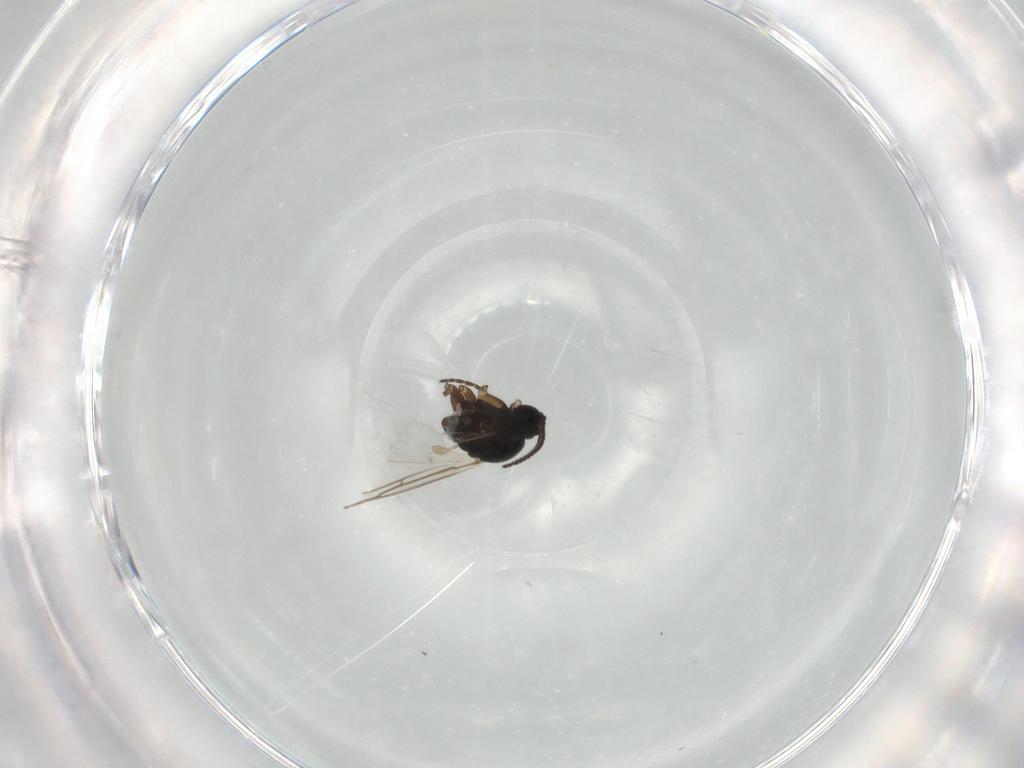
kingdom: Animalia
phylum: Arthropoda
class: Insecta
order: Diptera
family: Sciaridae
